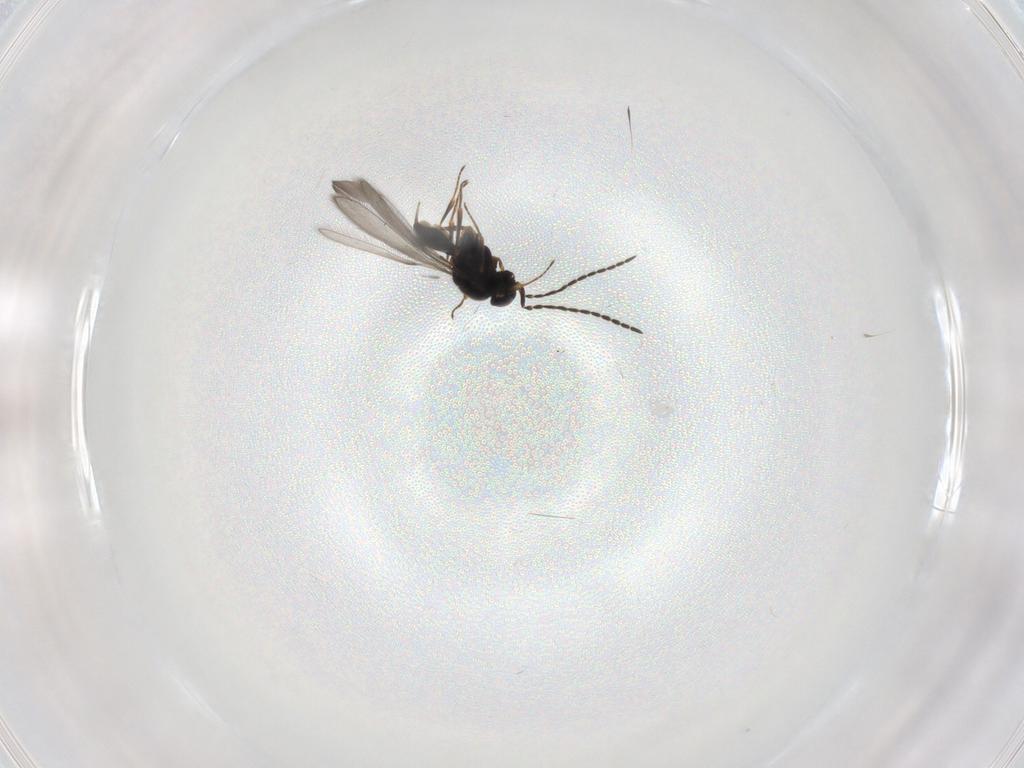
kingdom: Animalia
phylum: Arthropoda
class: Insecta
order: Hymenoptera
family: Scelionidae
